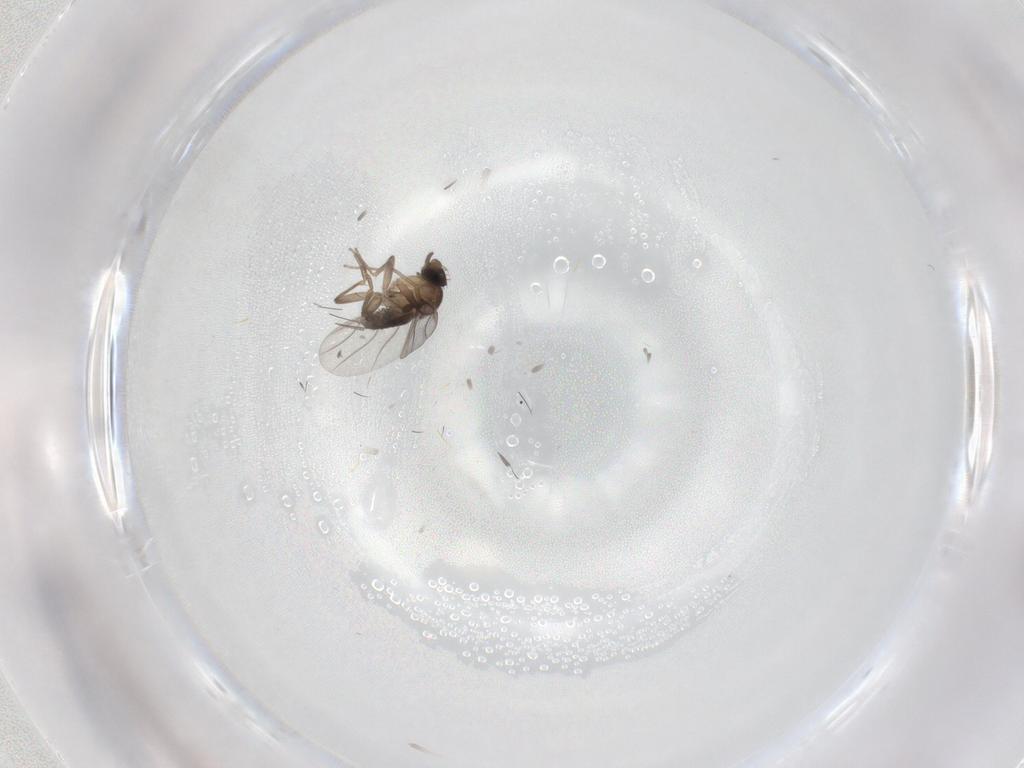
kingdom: Animalia
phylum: Arthropoda
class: Insecta
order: Diptera
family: Phoridae
